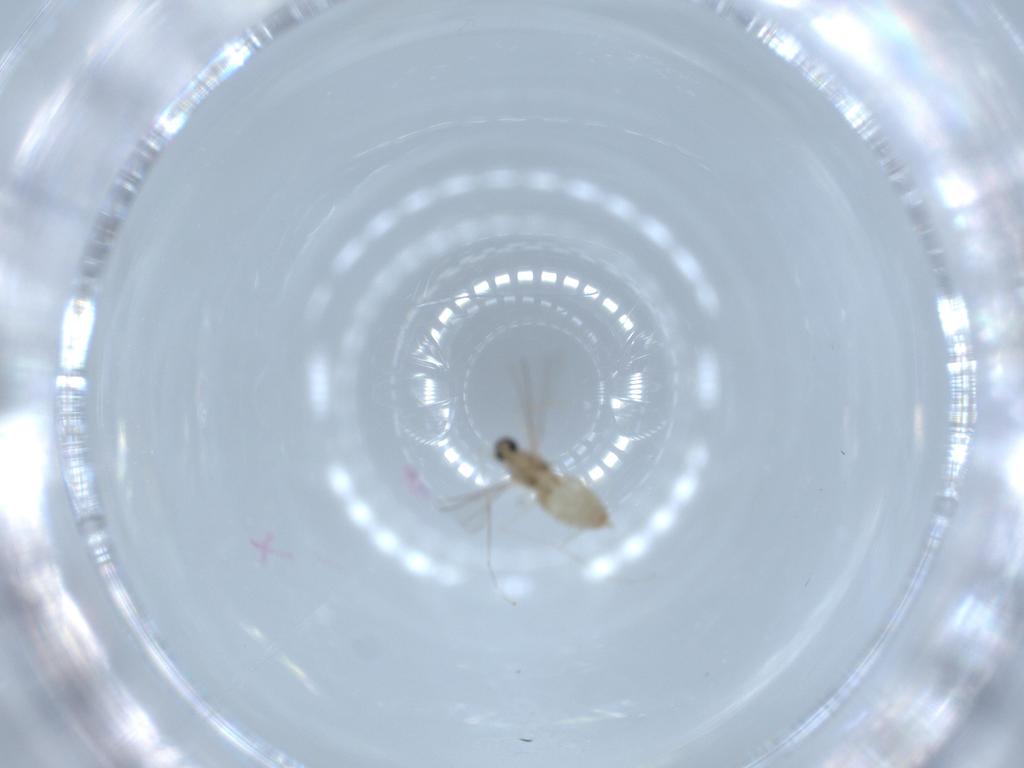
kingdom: Animalia
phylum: Arthropoda
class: Insecta
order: Diptera
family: Cecidomyiidae
